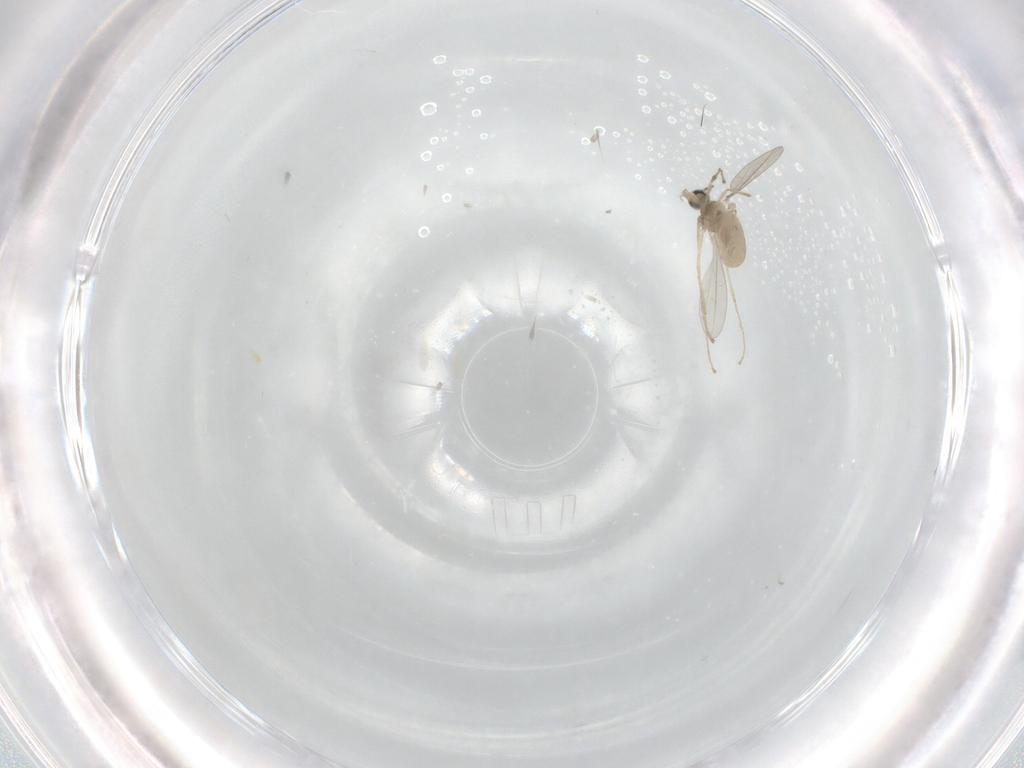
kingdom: Animalia
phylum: Arthropoda
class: Insecta
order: Diptera
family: Phoridae
